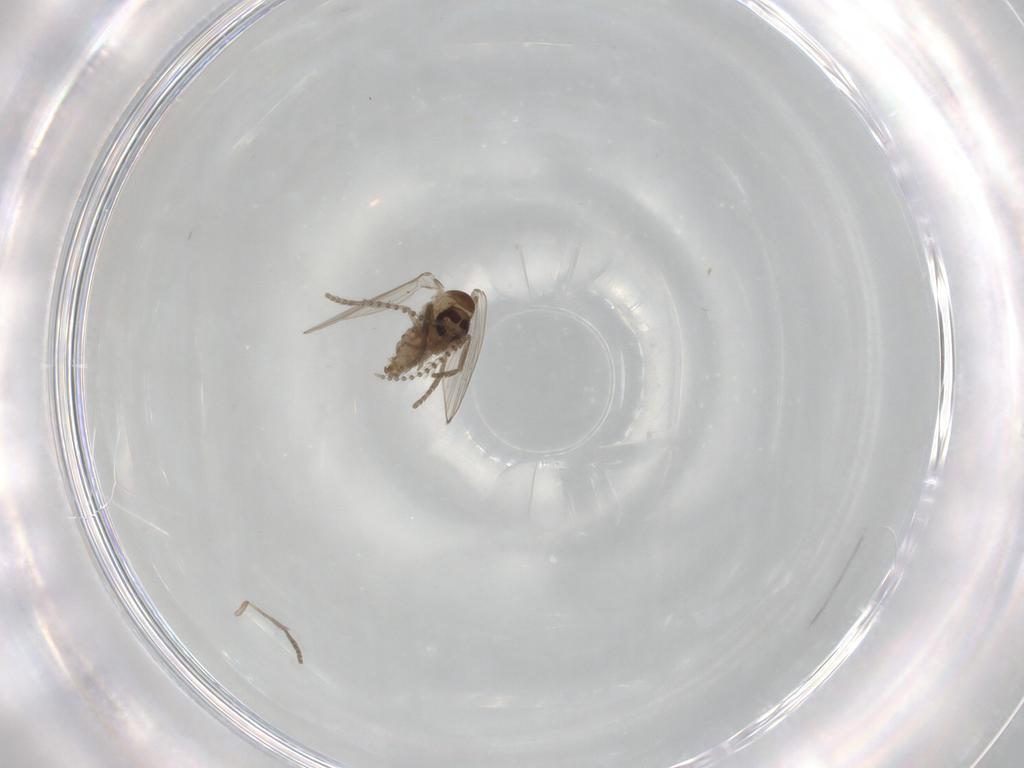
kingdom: Animalia
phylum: Arthropoda
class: Insecta
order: Diptera
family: Psychodidae
